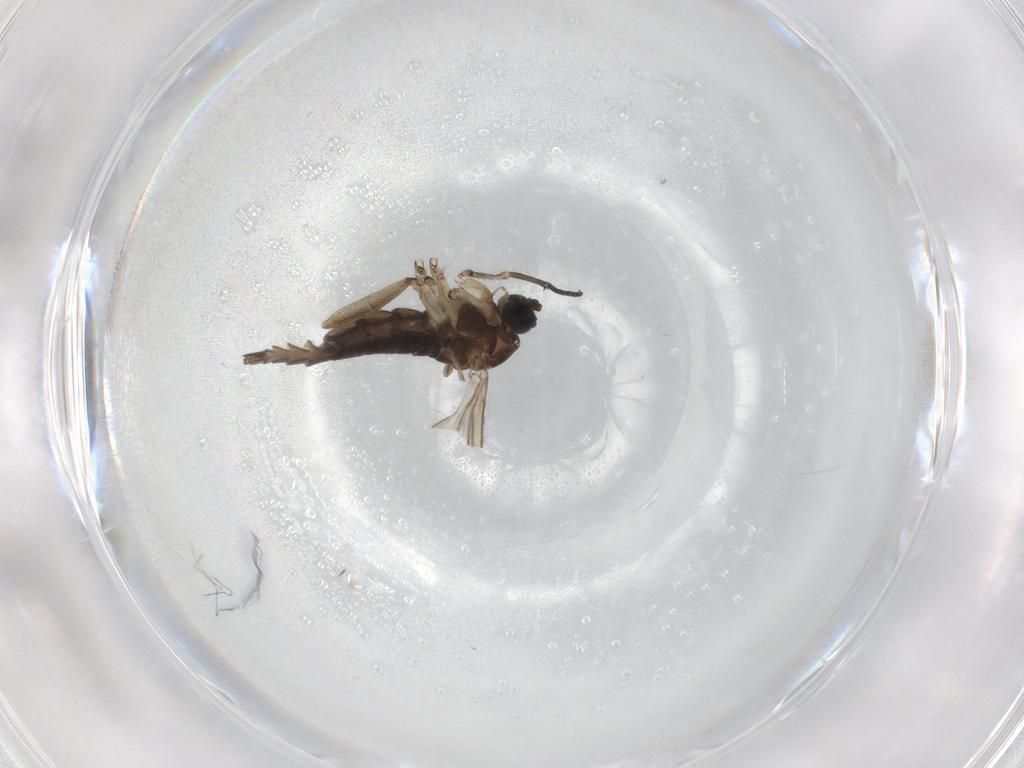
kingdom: Animalia
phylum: Arthropoda
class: Insecta
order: Diptera
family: Sciaridae
